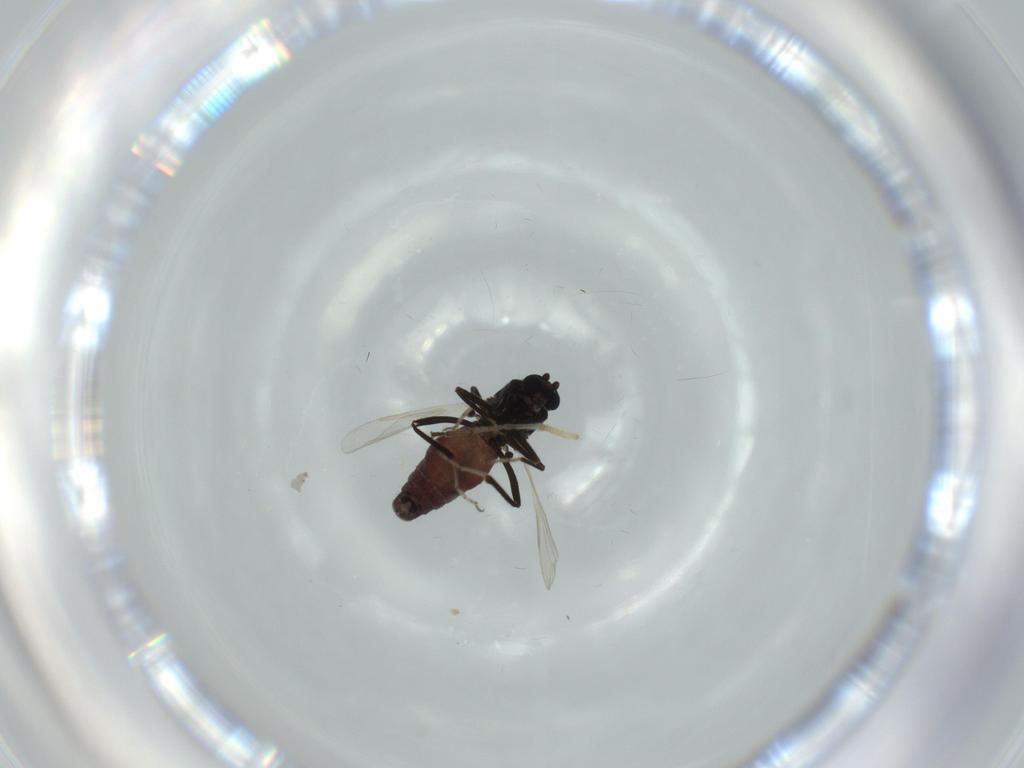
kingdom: Animalia
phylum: Arthropoda
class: Insecta
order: Diptera
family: Ceratopogonidae
